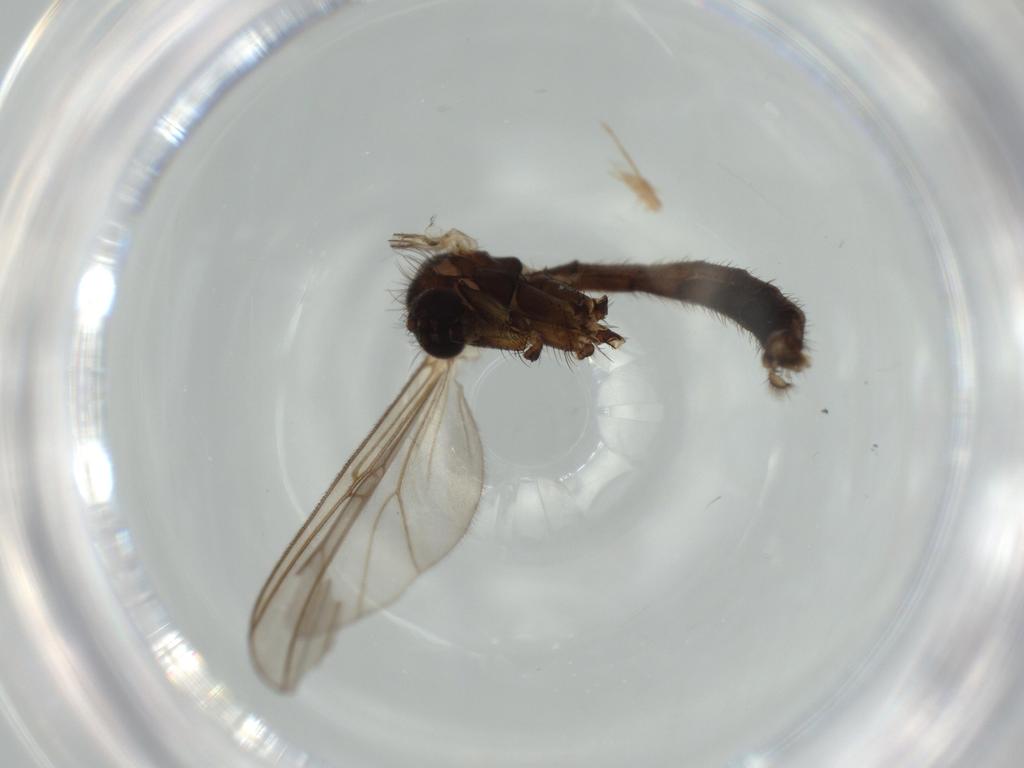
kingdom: Animalia
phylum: Arthropoda
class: Insecta
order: Diptera
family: Mycetophilidae
